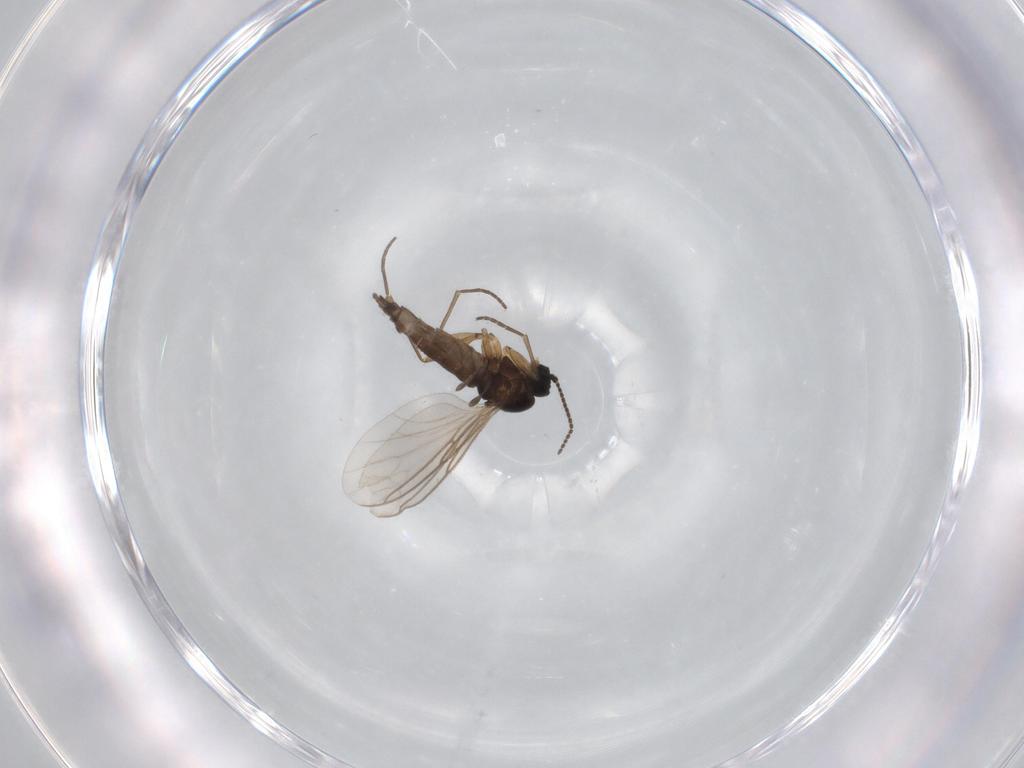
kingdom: Animalia
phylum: Arthropoda
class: Insecta
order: Diptera
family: Sciaridae
